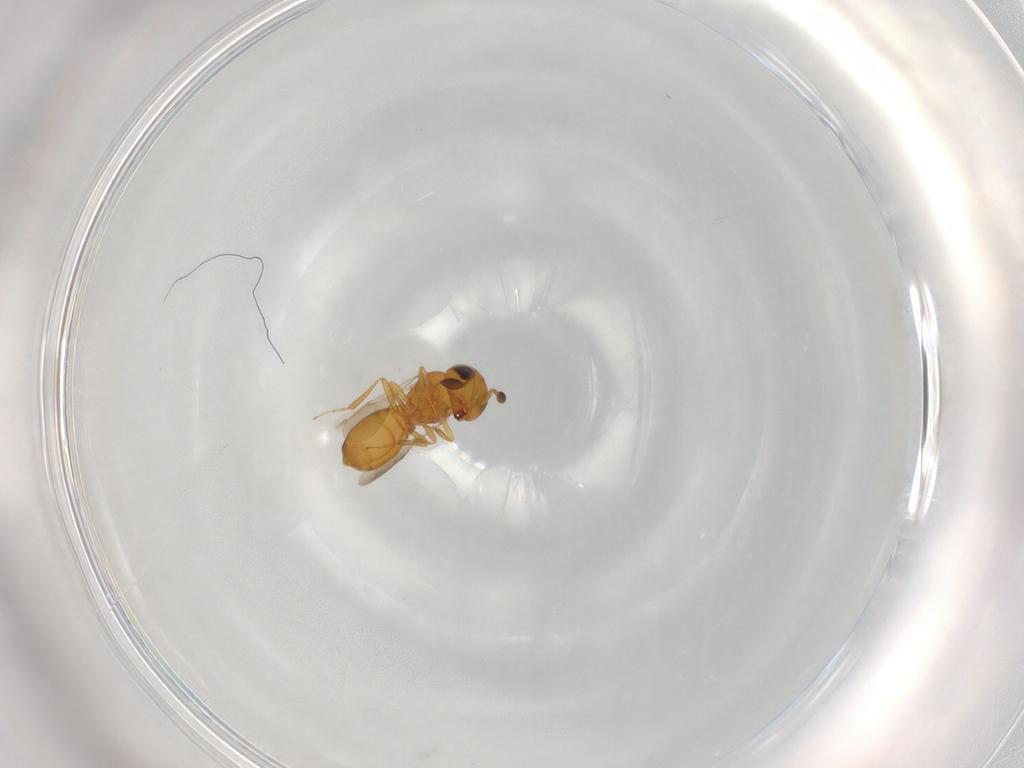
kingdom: Animalia
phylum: Arthropoda
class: Insecta
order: Hymenoptera
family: Scelionidae
